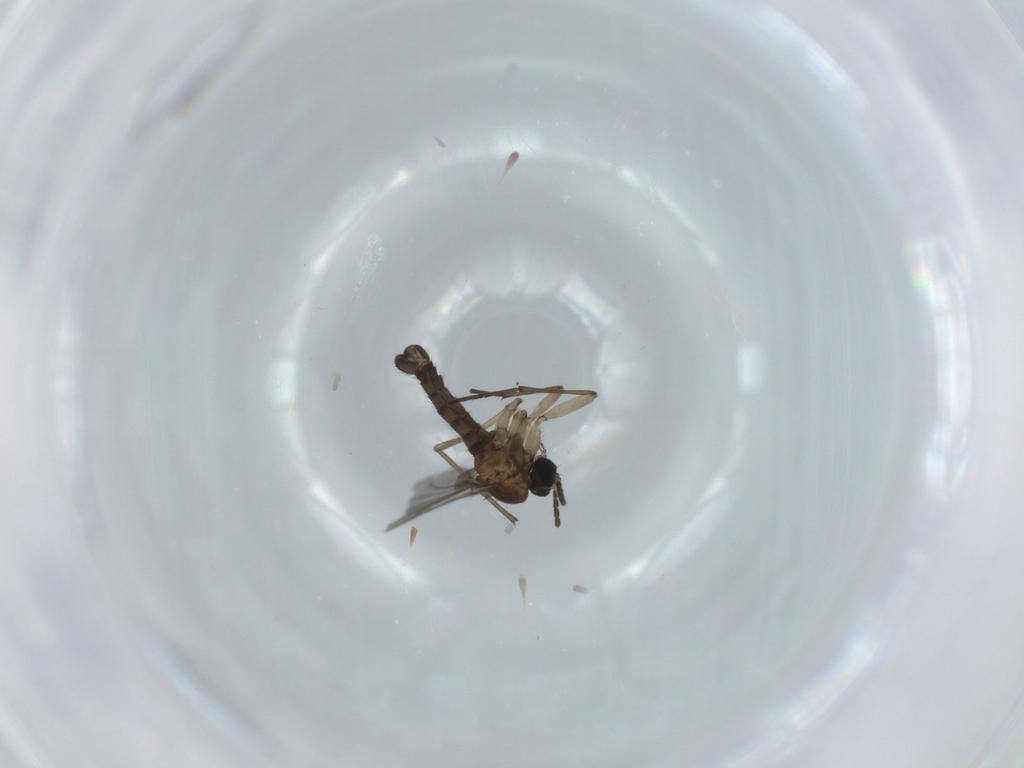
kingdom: Animalia
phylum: Arthropoda
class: Insecta
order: Diptera
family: Sciaridae
